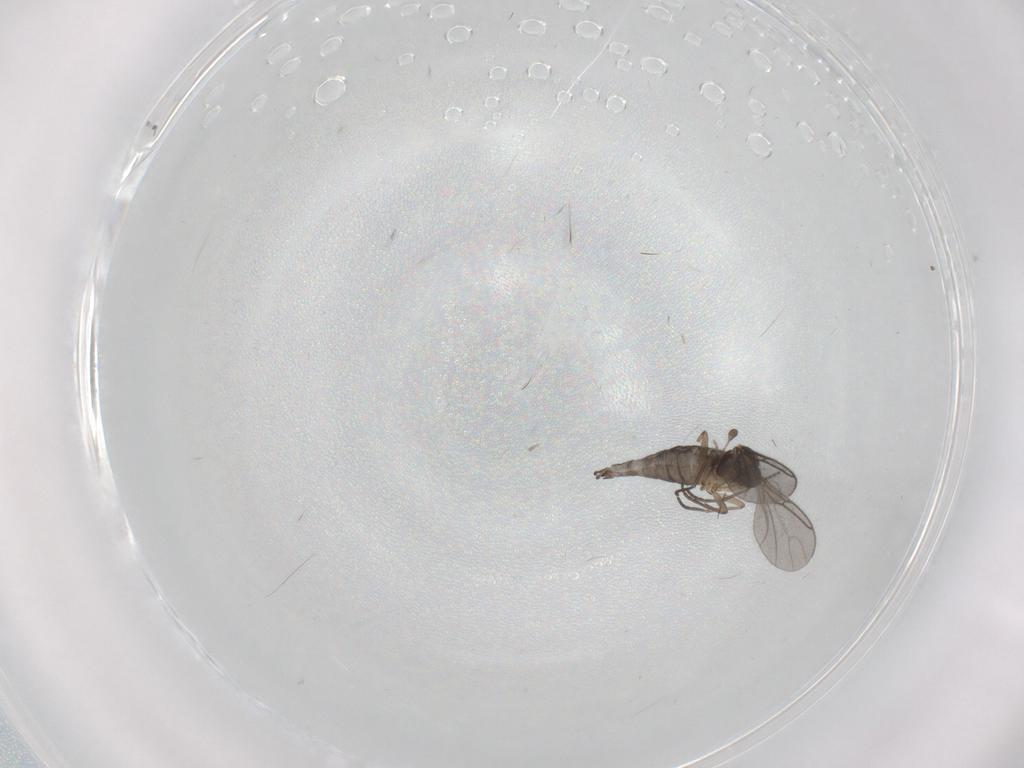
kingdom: Animalia
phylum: Arthropoda
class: Insecta
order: Diptera
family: Sciaridae
